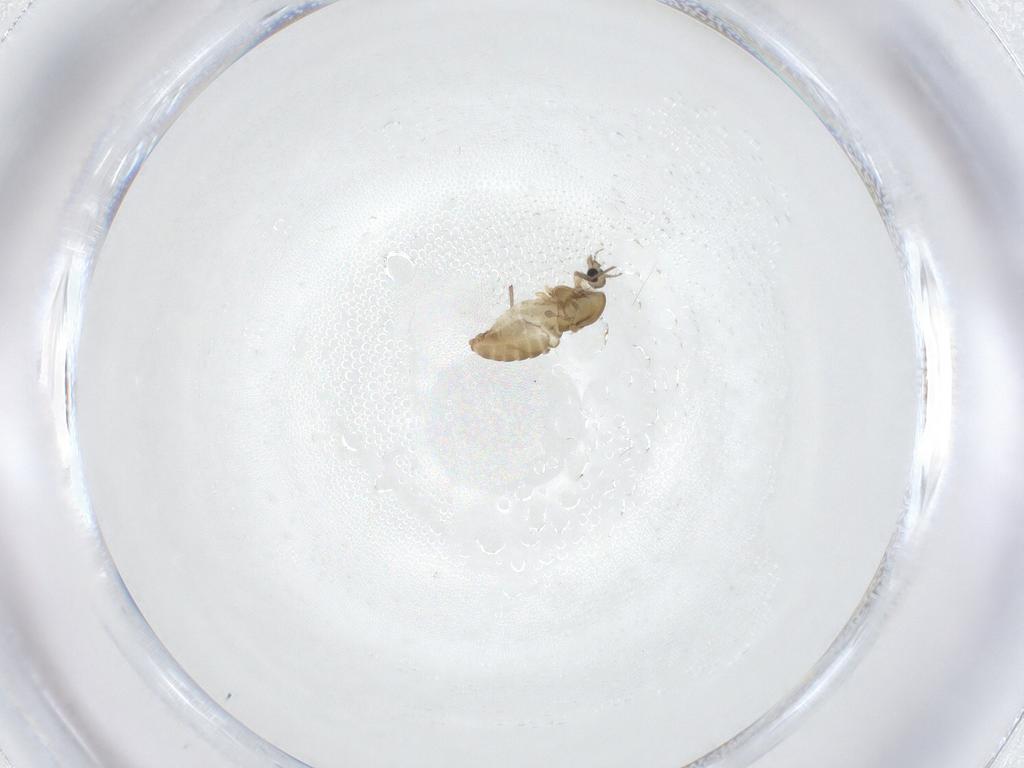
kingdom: Animalia
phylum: Arthropoda
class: Insecta
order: Diptera
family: Chironomidae
